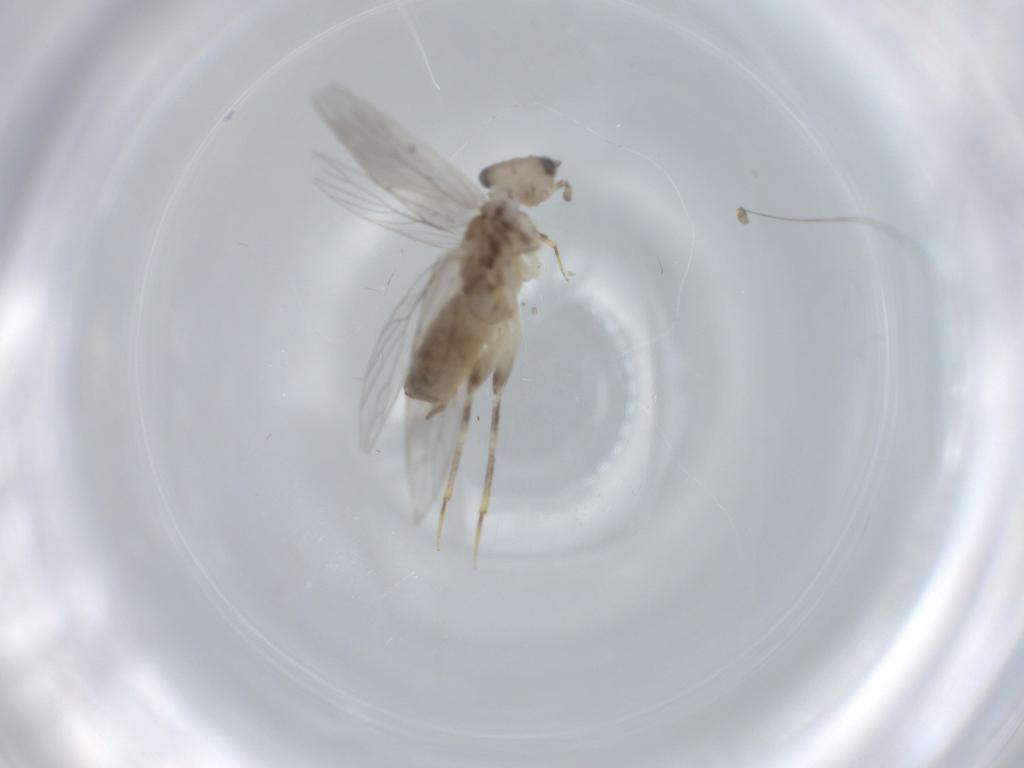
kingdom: Animalia
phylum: Arthropoda
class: Insecta
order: Psocodea
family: Lepidopsocidae
